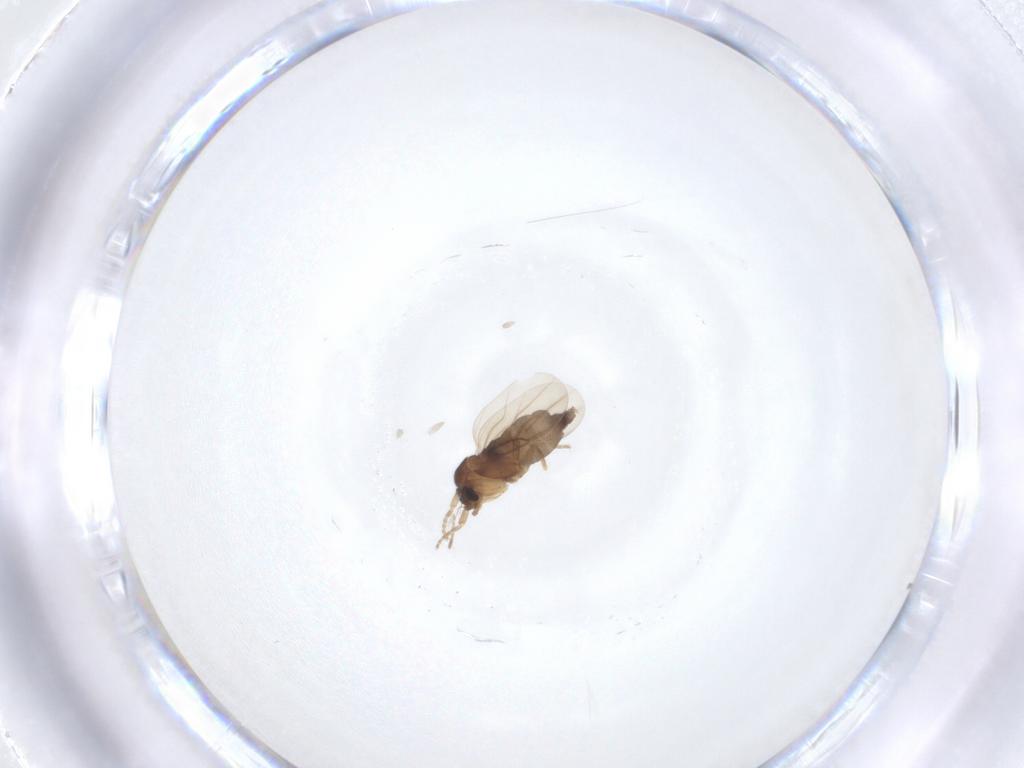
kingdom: Animalia
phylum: Arthropoda
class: Insecta
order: Diptera
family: Phoridae
